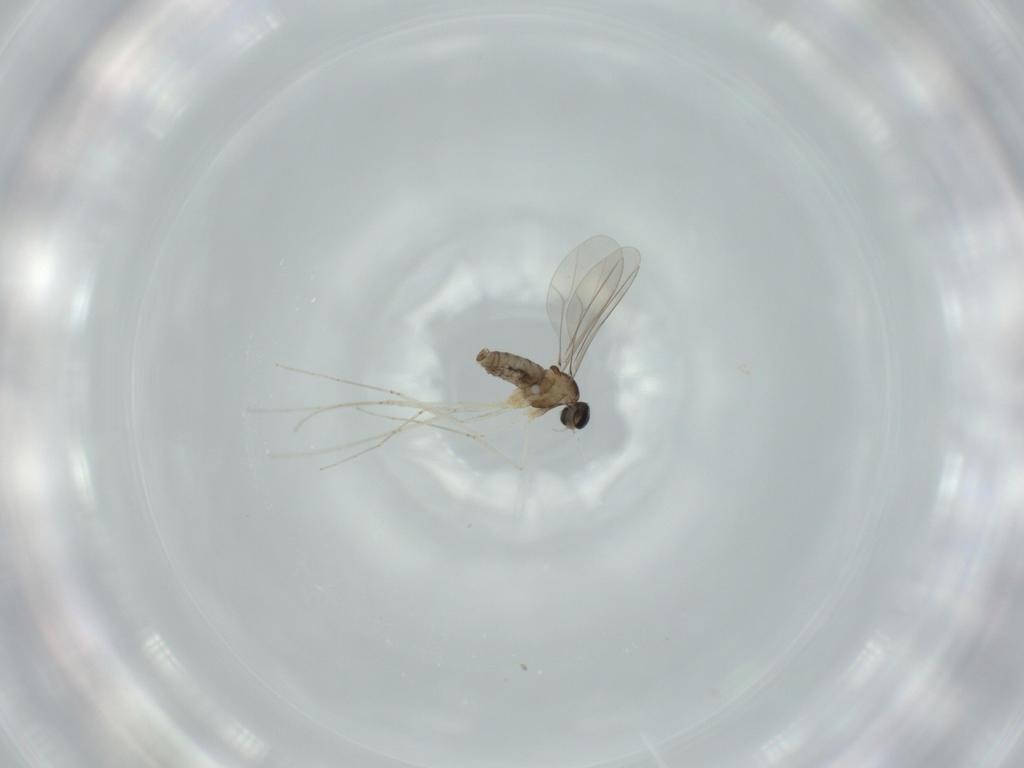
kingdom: Animalia
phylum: Arthropoda
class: Insecta
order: Diptera
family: Cecidomyiidae
